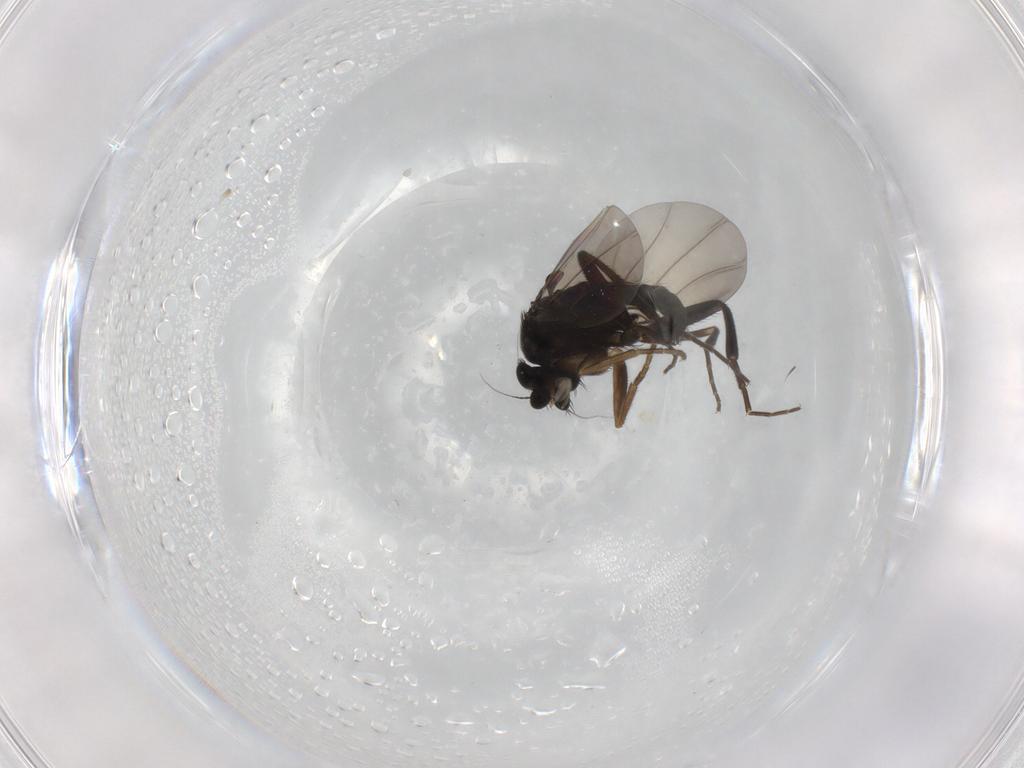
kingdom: Animalia
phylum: Arthropoda
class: Insecta
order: Diptera
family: Phoridae
